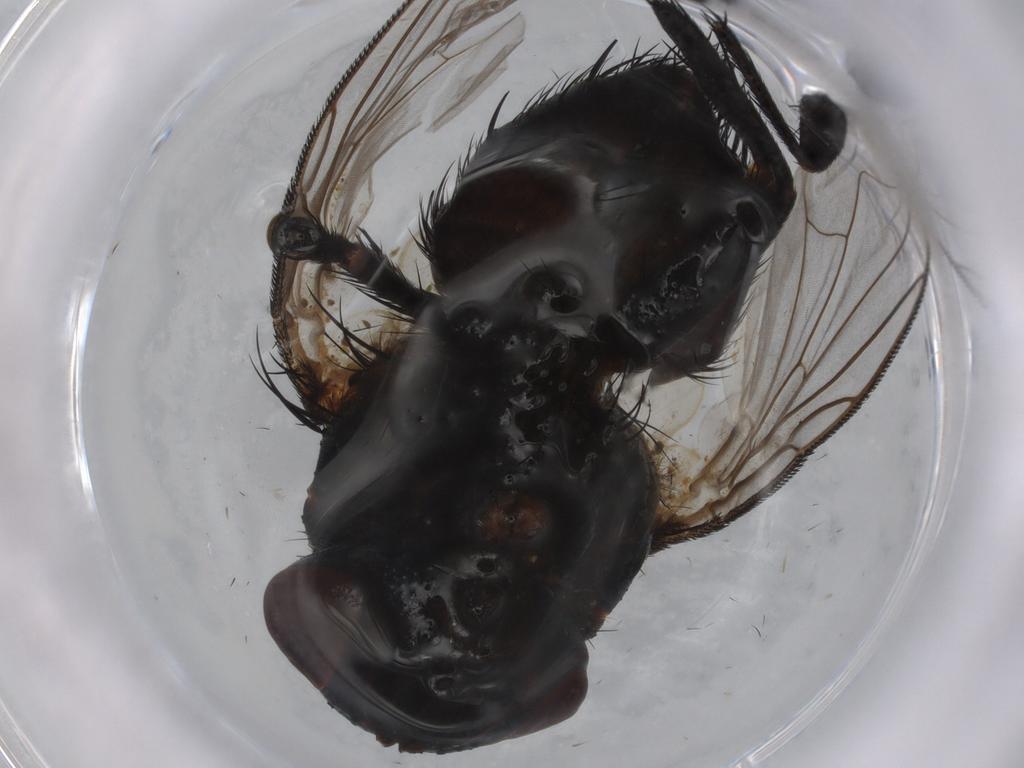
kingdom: Animalia
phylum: Arthropoda
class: Insecta
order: Diptera
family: Tachinidae
